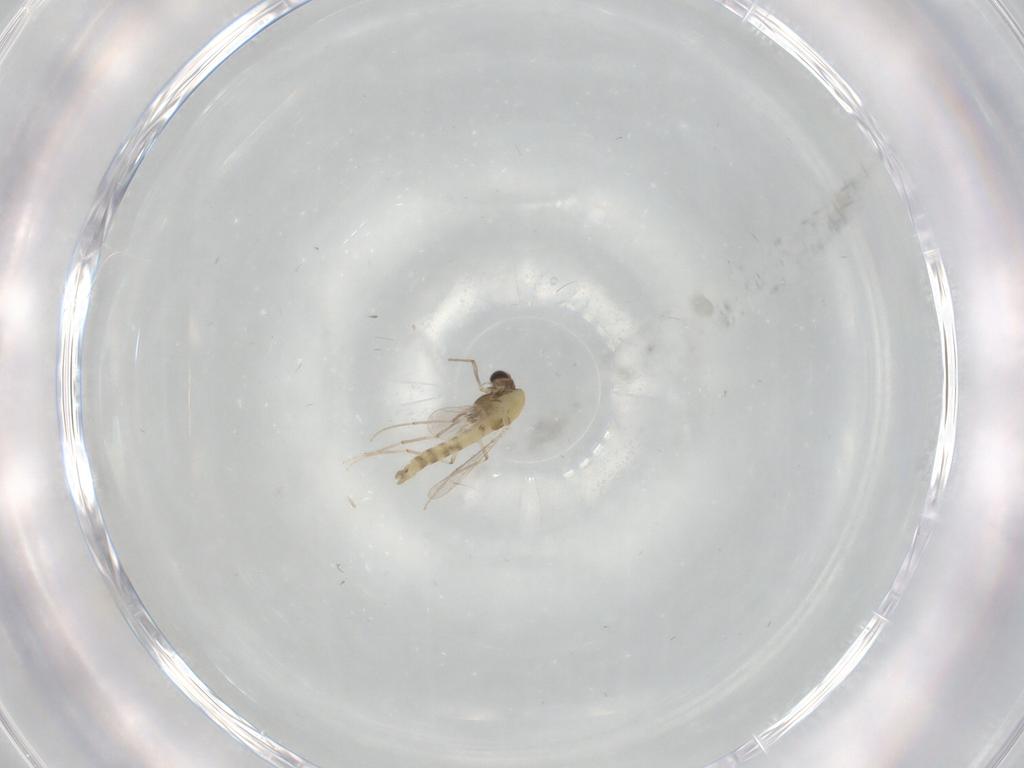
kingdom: Animalia
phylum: Arthropoda
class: Insecta
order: Diptera
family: Chironomidae
